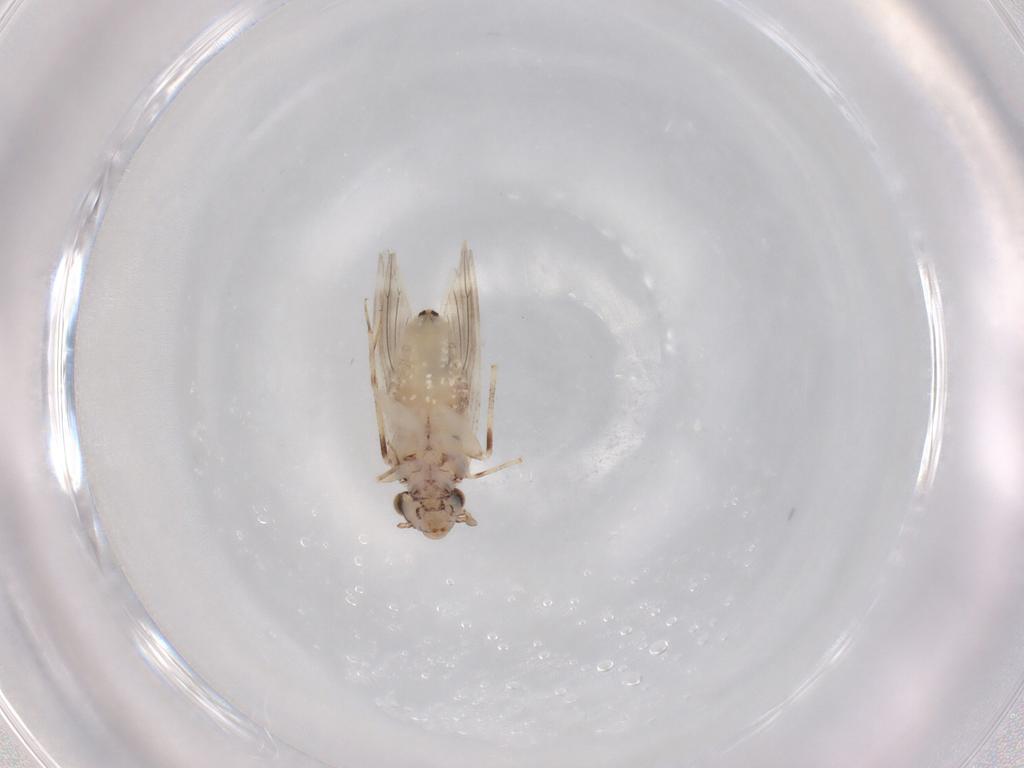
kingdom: Animalia
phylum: Arthropoda
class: Insecta
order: Psocodea
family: Lepidopsocidae
